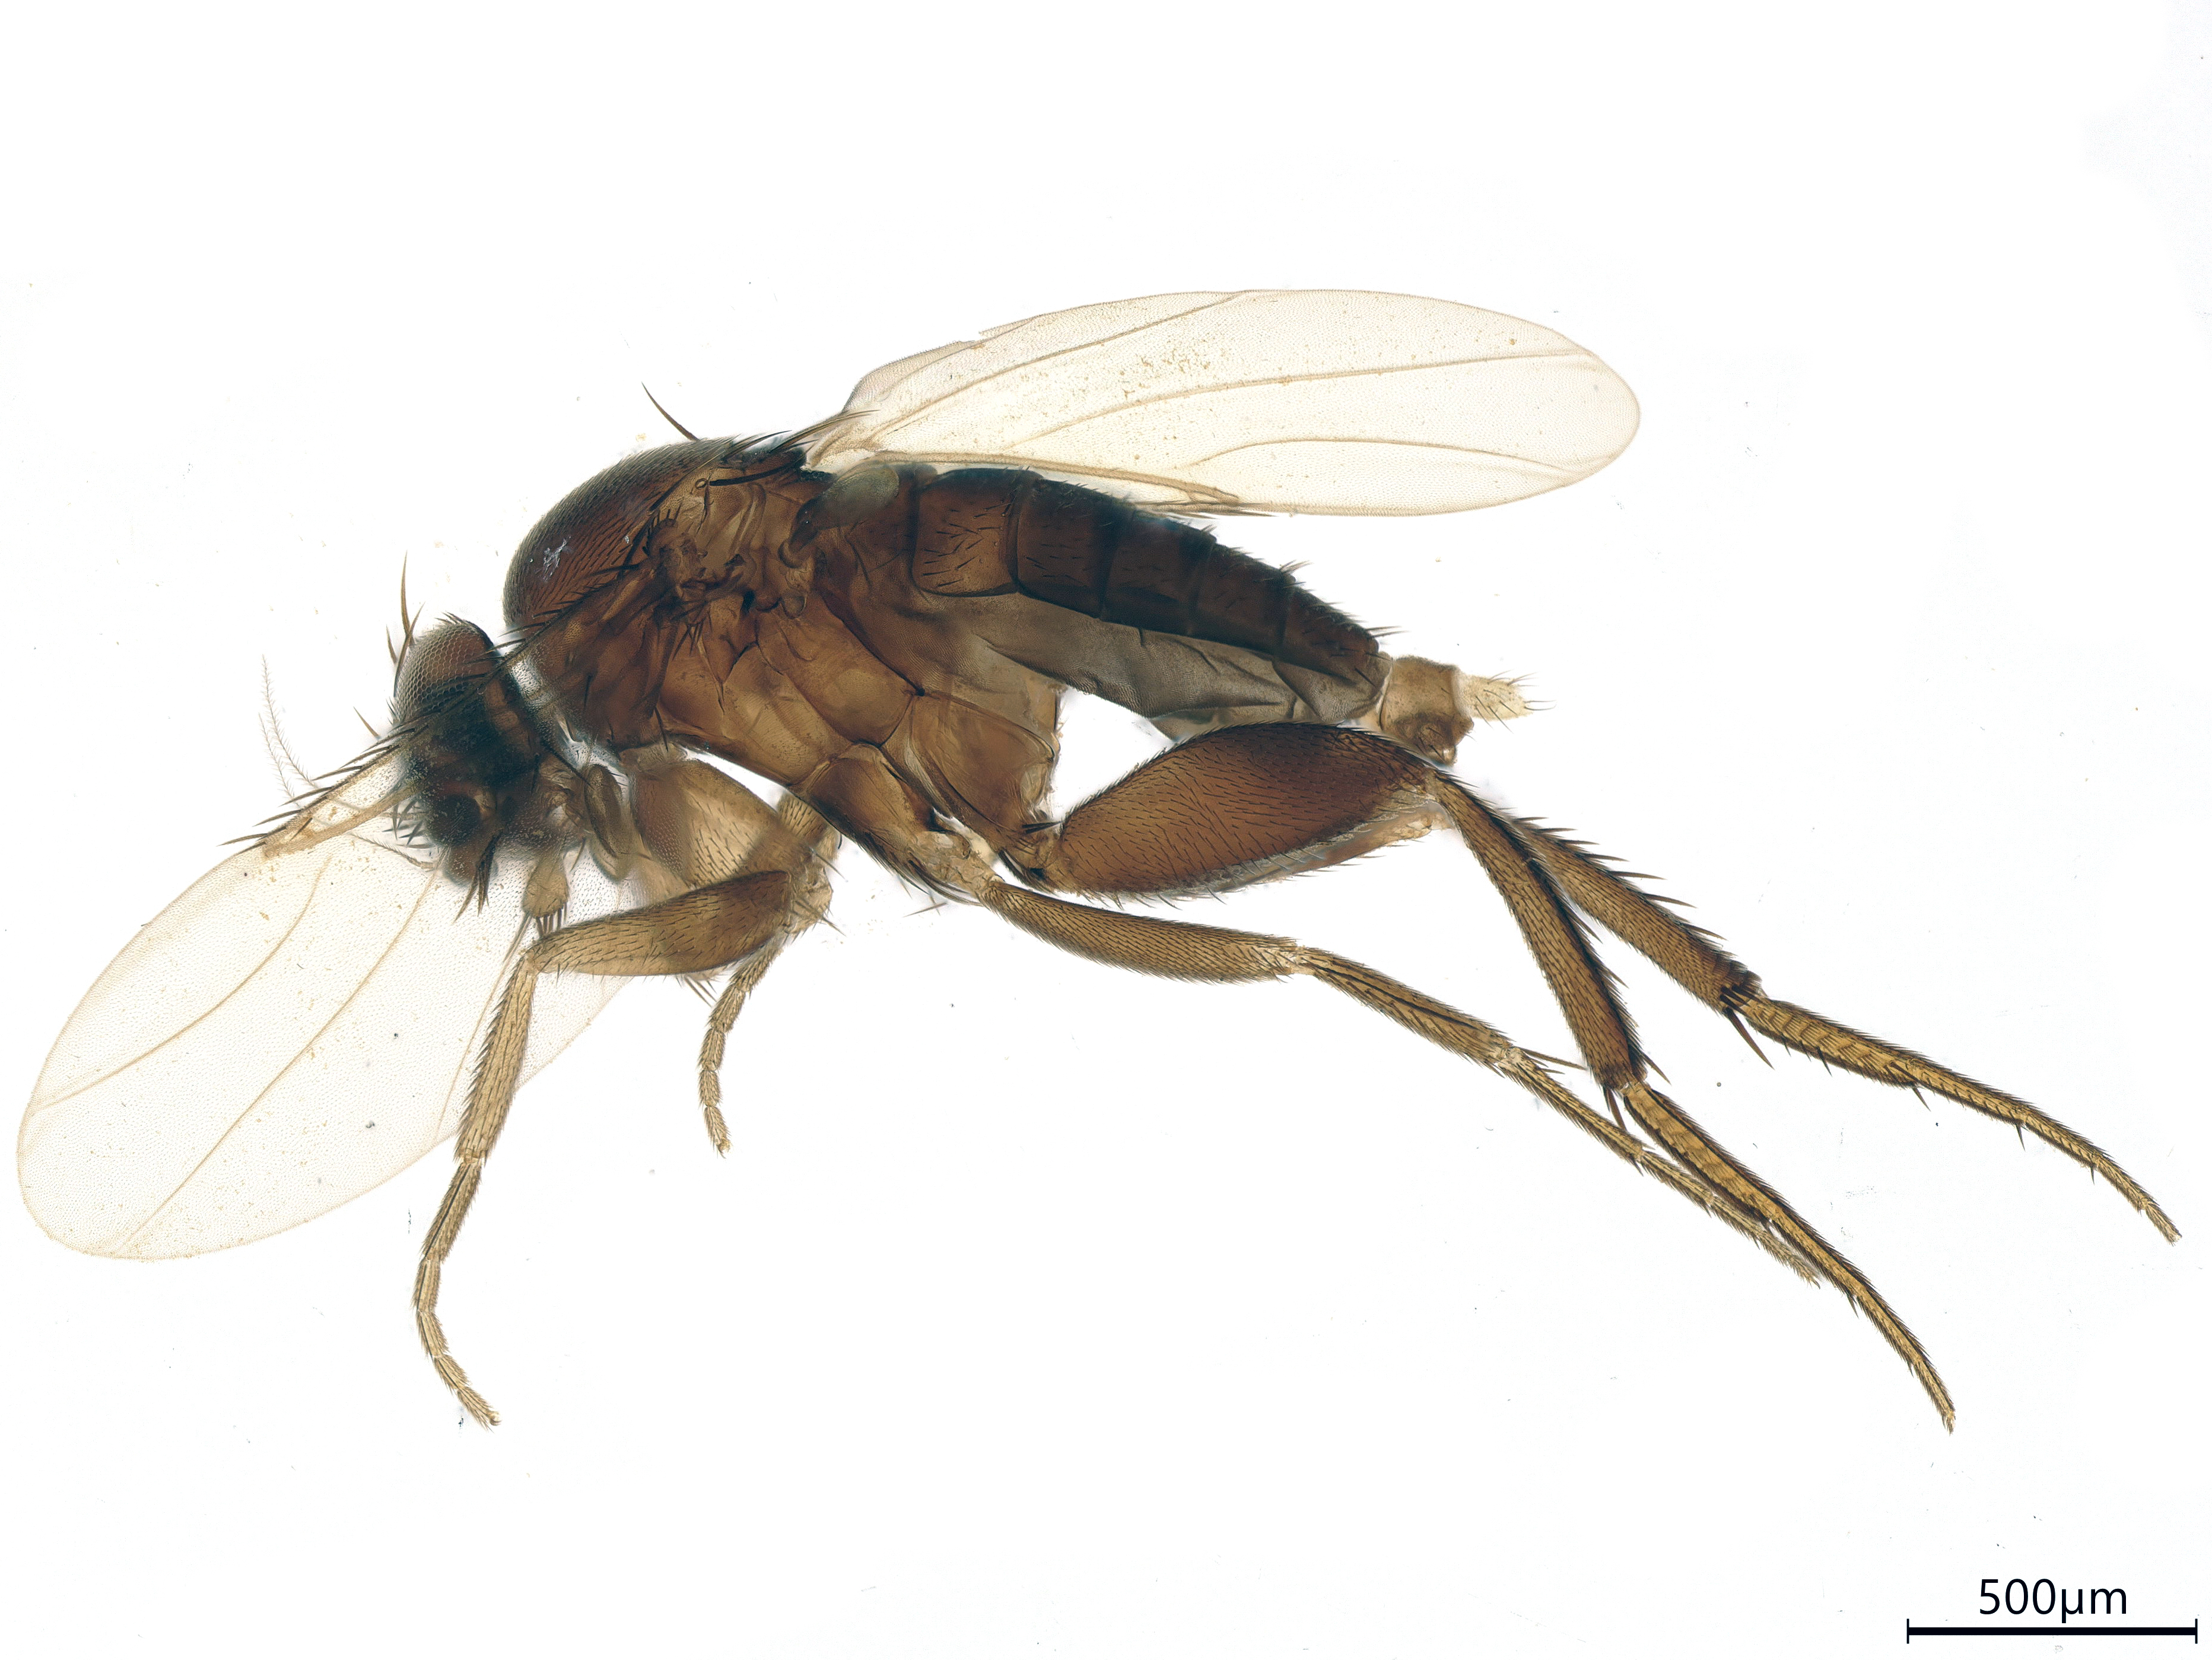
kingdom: Animalia
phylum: Arthropoda
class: Insecta
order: Diptera
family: Phoridae
